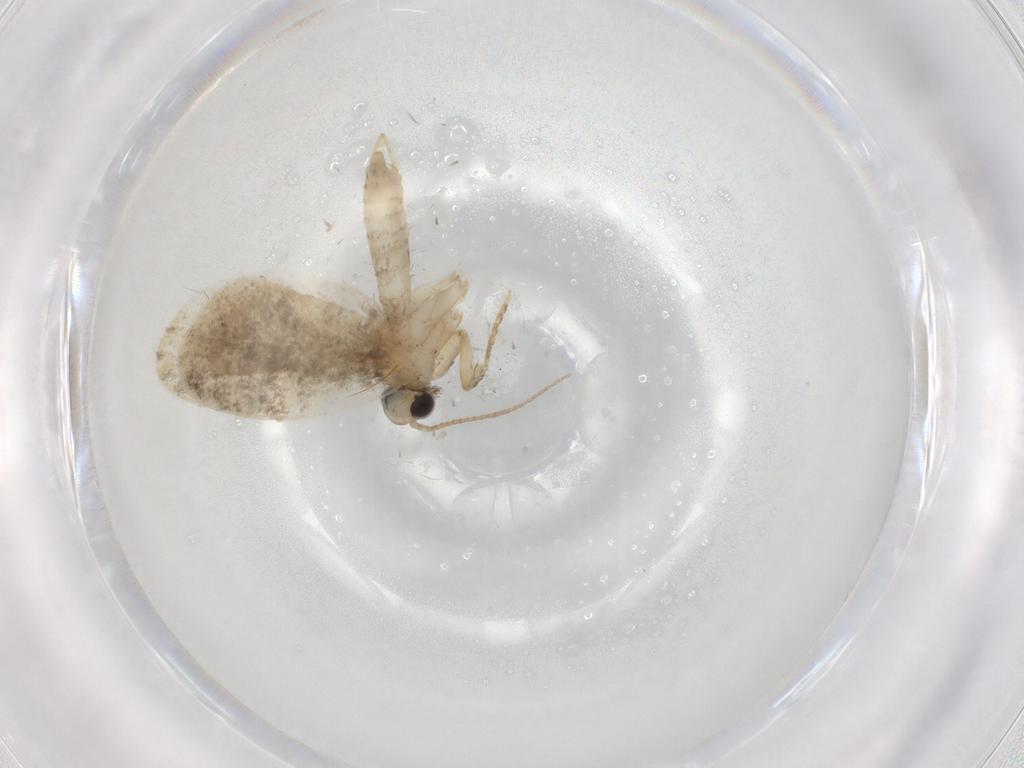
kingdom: Animalia
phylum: Arthropoda
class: Insecta
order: Lepidoptera
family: Psychidae
